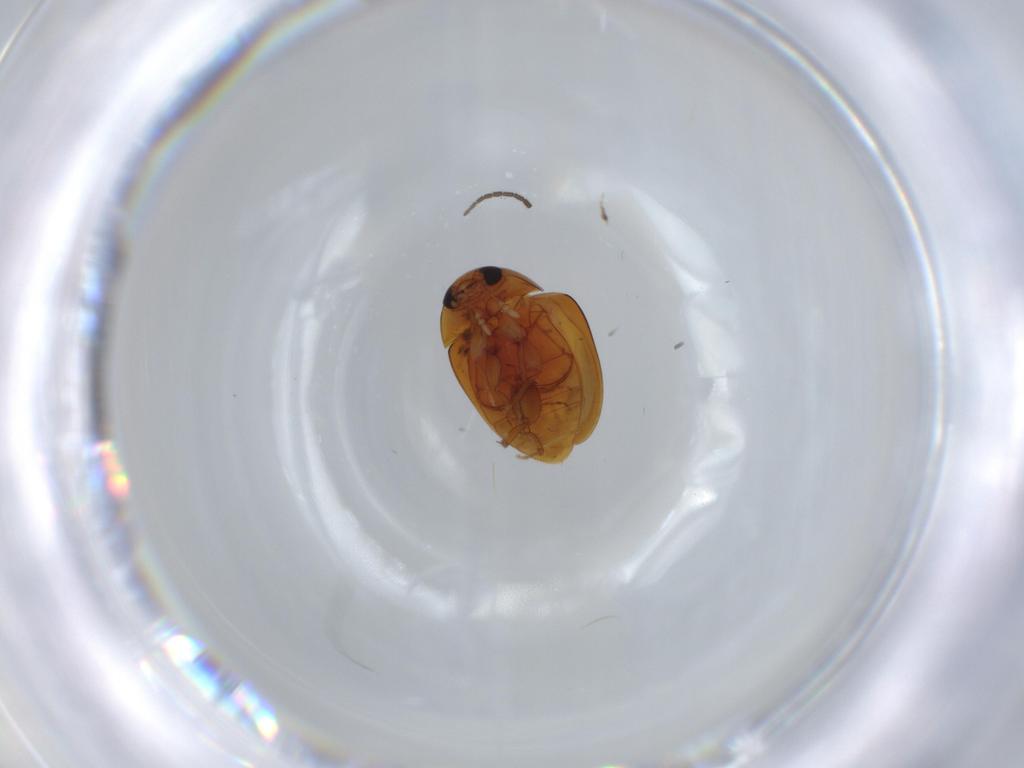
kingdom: Animalia
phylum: Arthropoda
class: Insecta
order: Coleoptera
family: Phalacridae
